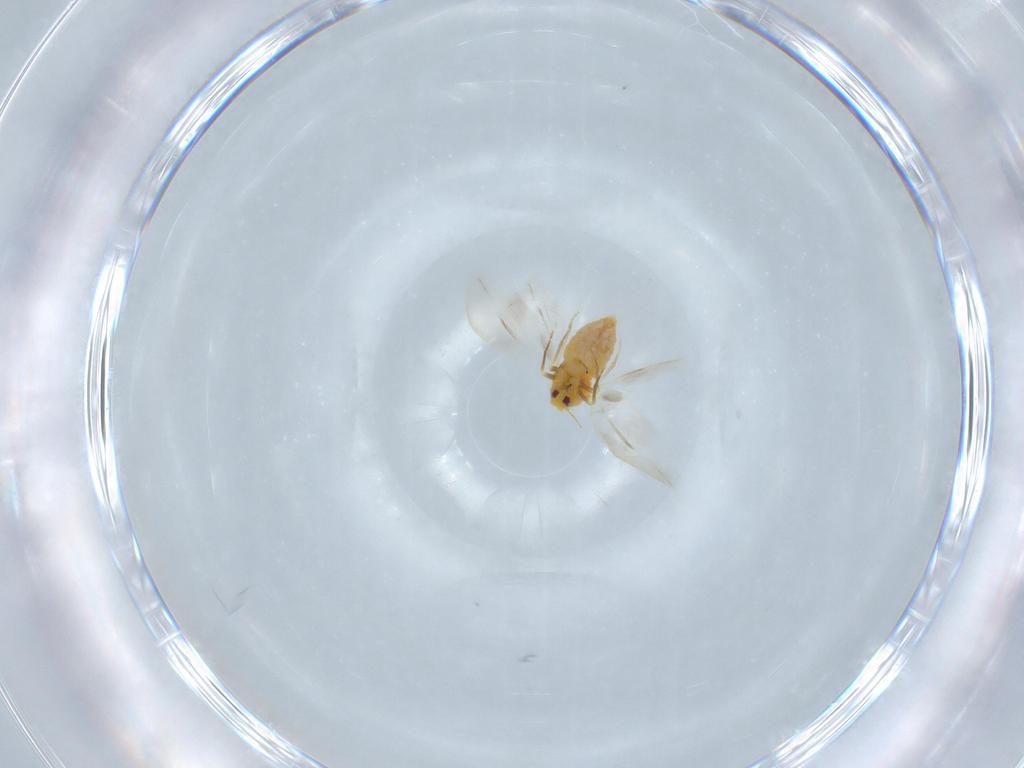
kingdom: Animalia
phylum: Arthropoda
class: Insecta
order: Hemiptera
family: Aleyrodidae
